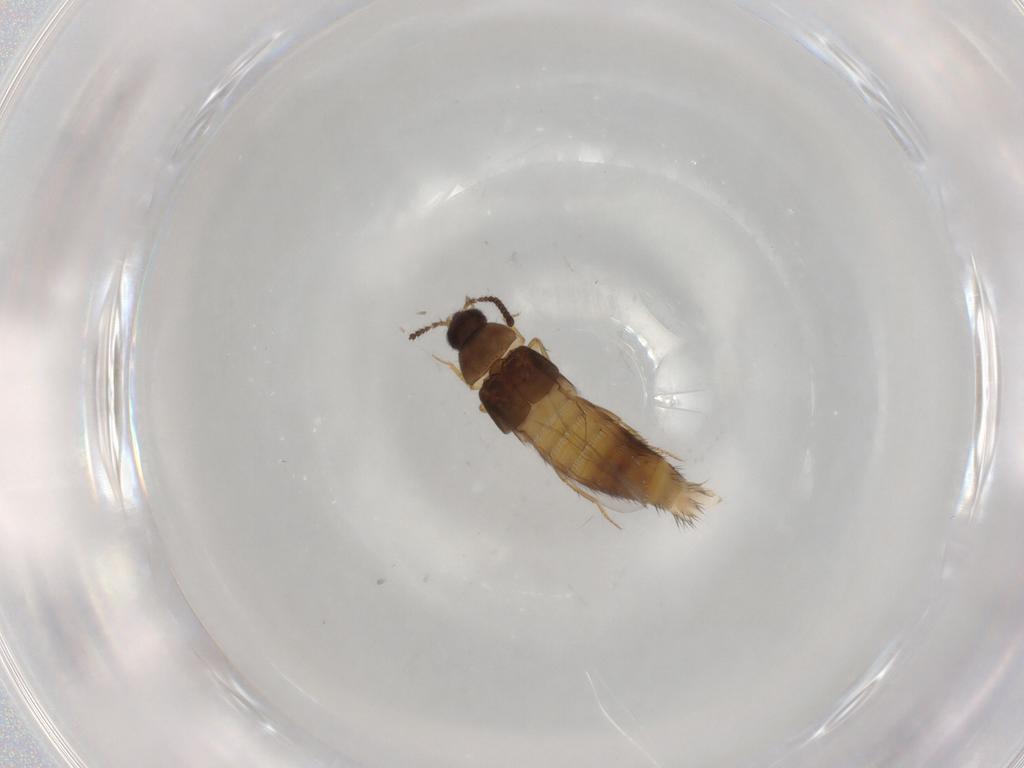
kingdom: Animalia
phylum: Arthropoda
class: Insecta
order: Coleoptera
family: Staphylinidae
